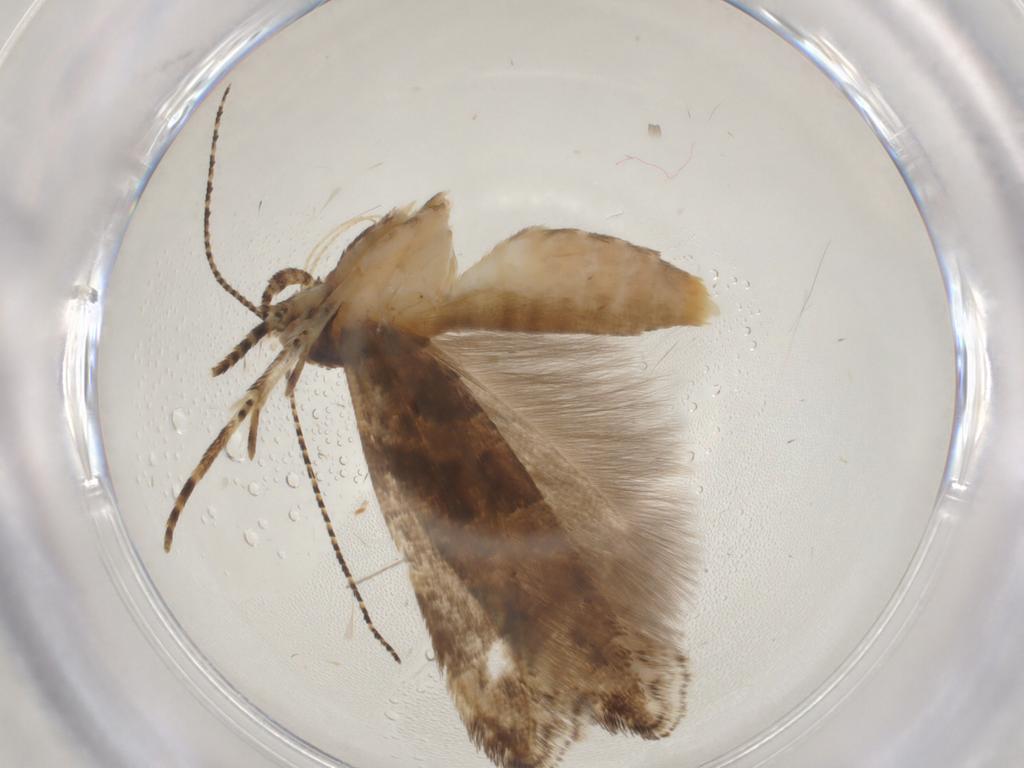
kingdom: Animalia
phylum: Arthropoda
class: Insecta
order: Lepidoptera
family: Gelechiidae
